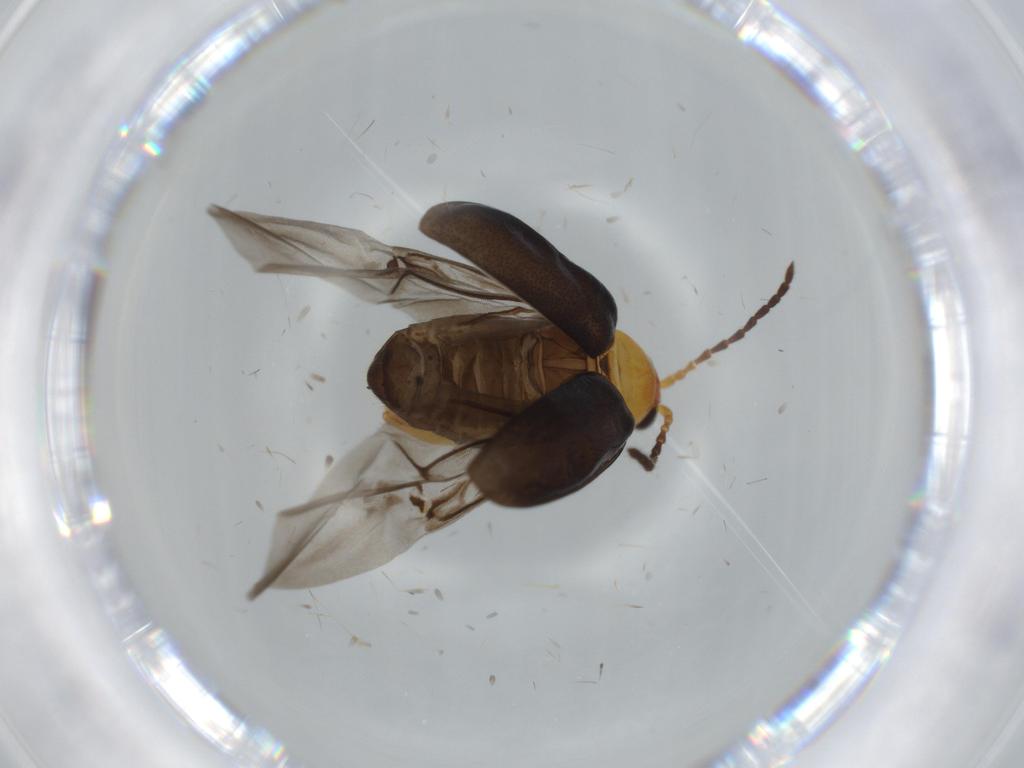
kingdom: Animalia
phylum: Arthropoda
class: Insecta
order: Coleoptera
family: Chrysomelidae
